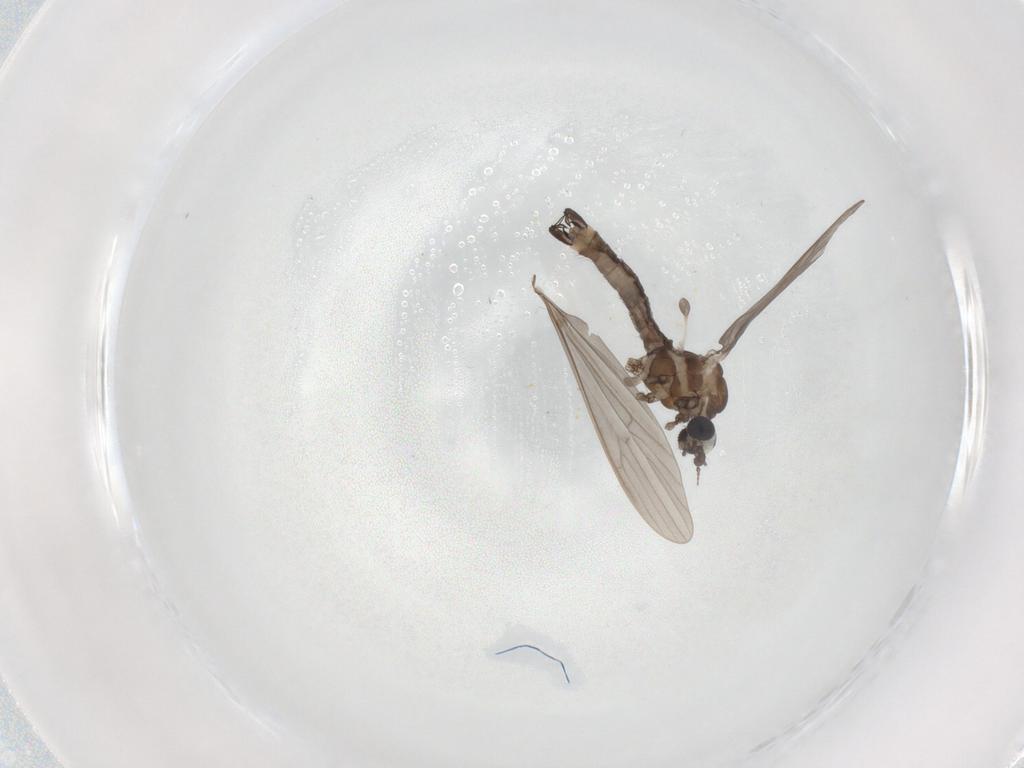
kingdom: Animalia
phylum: Arthropoda
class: Insecta
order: Diptera
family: Limoniidae
